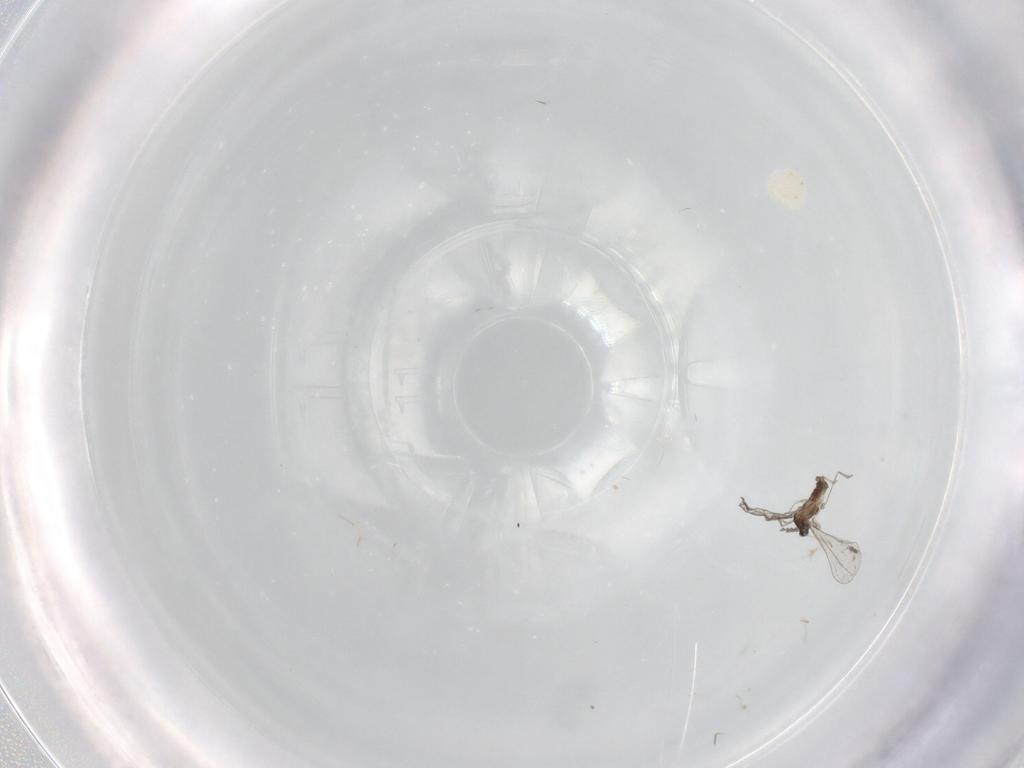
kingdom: Animalia
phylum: Arthropoda
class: Insecta
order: Diptera
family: Cecidomyiidae
